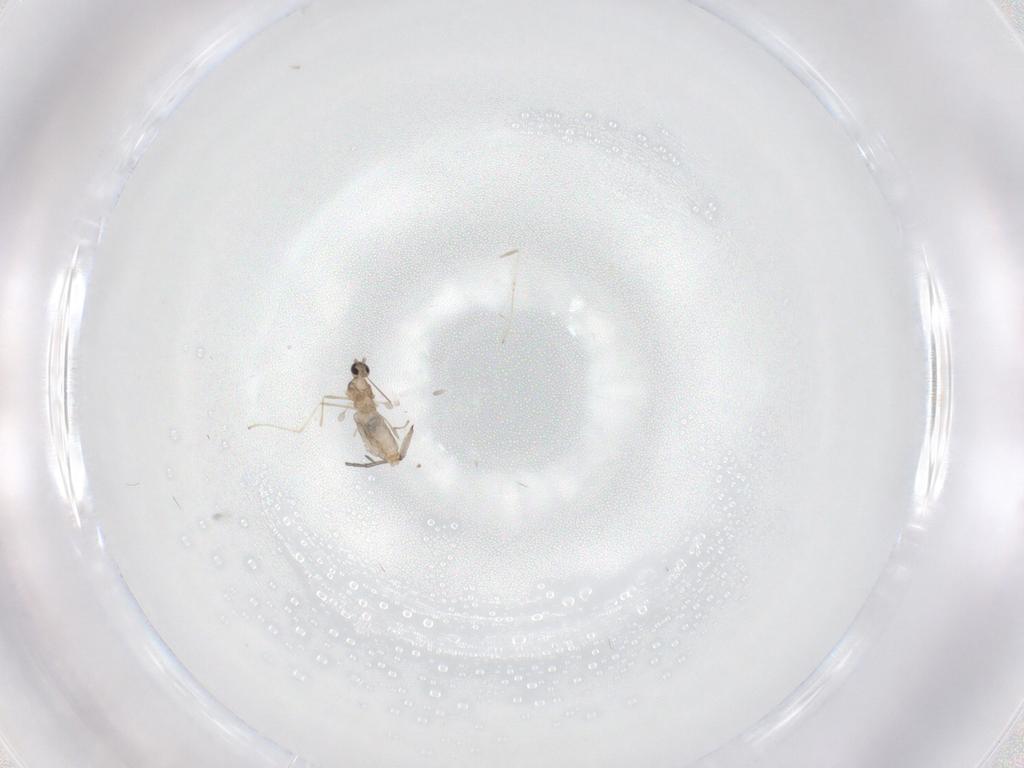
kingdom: Animalia
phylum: Arthropoda
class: Insecta
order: Diptera
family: Cecidomyiidae
